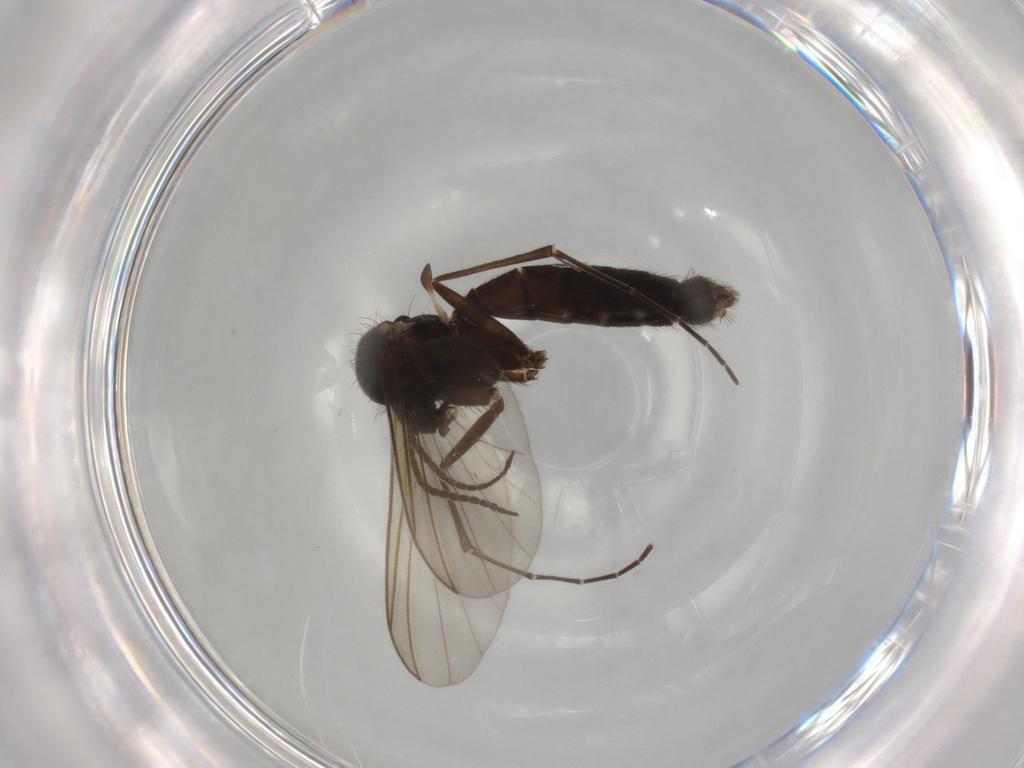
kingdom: Animalia
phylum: Arthropoda
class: Insecta
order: Diptera
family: Mycetophilidae
